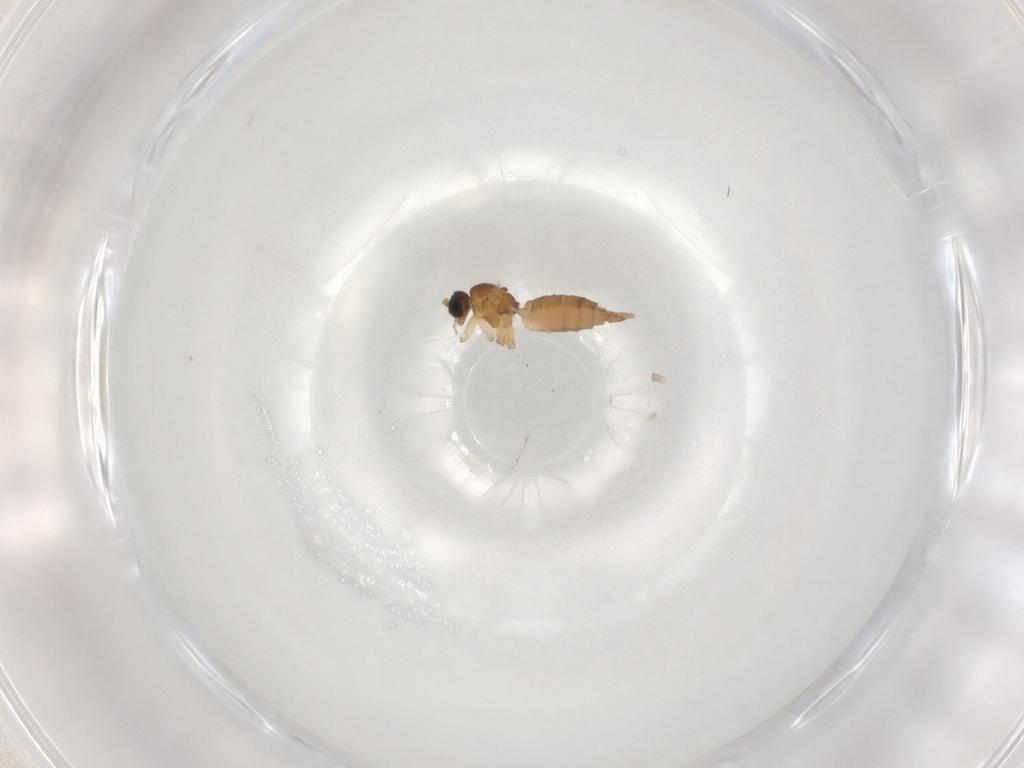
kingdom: Animalia
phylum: Arthropoda
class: Insecta
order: Diptera
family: Sciaridae
